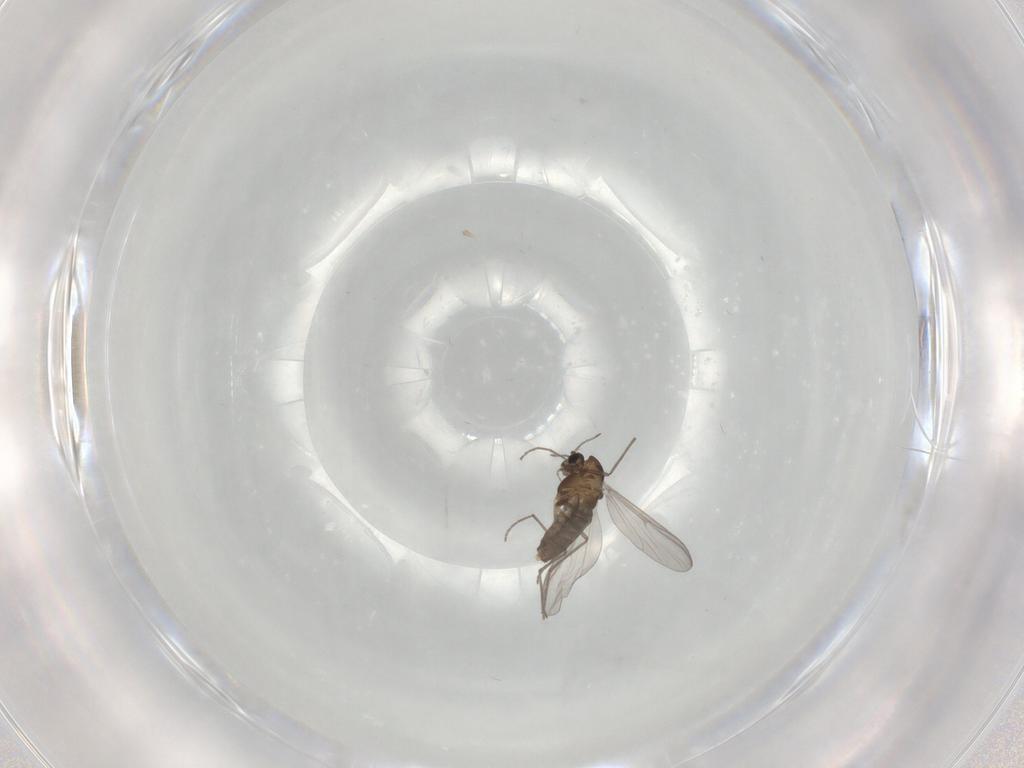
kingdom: Animalia
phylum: Arthropoda
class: Insecta
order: Diptera
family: Chironomidae
